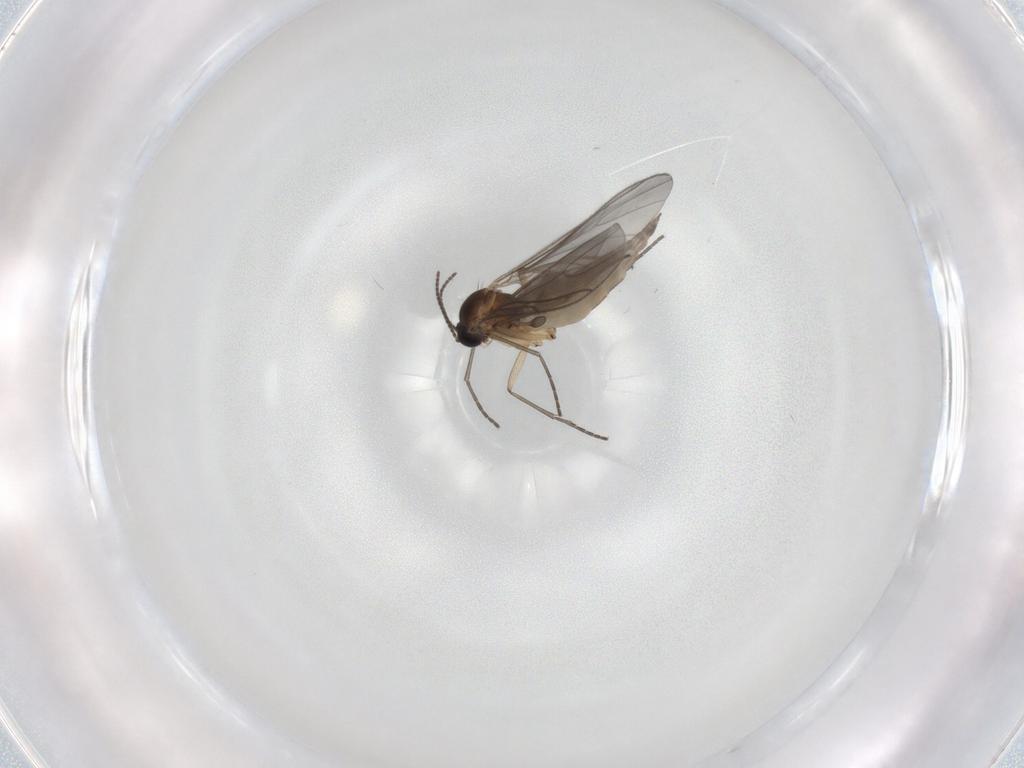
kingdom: Animalia
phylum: Arthropoda
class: Insecta
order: Diptera
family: Sciaridae
